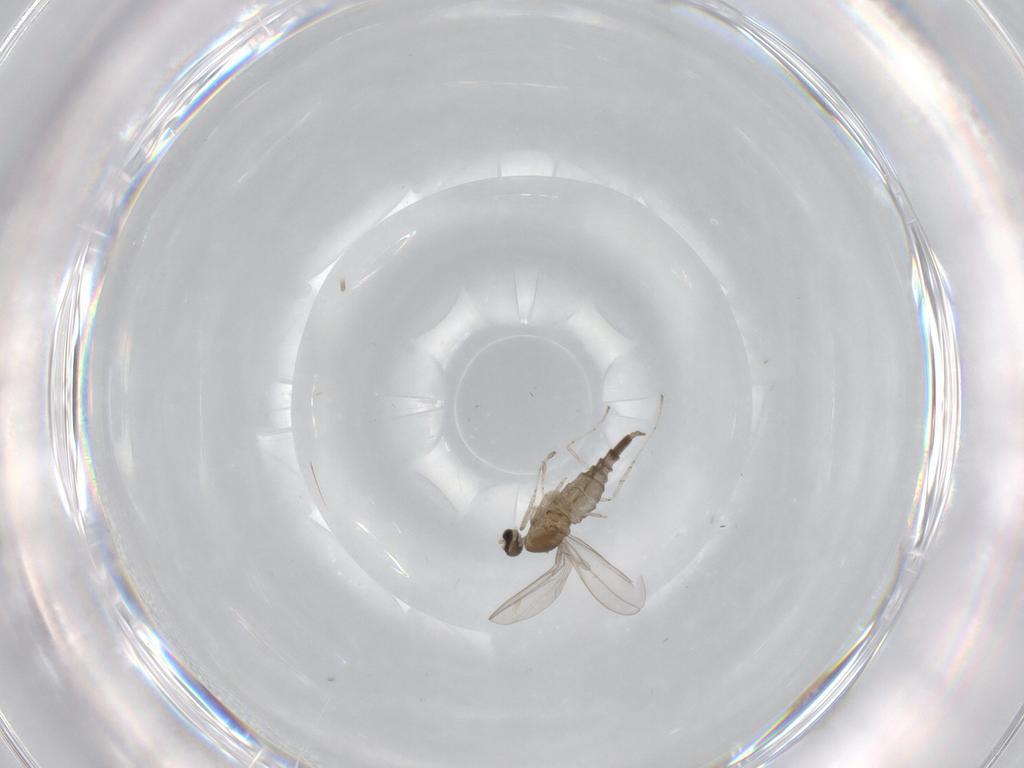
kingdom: Animalia
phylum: Arthropoda
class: Insecta
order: Diptera
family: Cecidomyiidae
